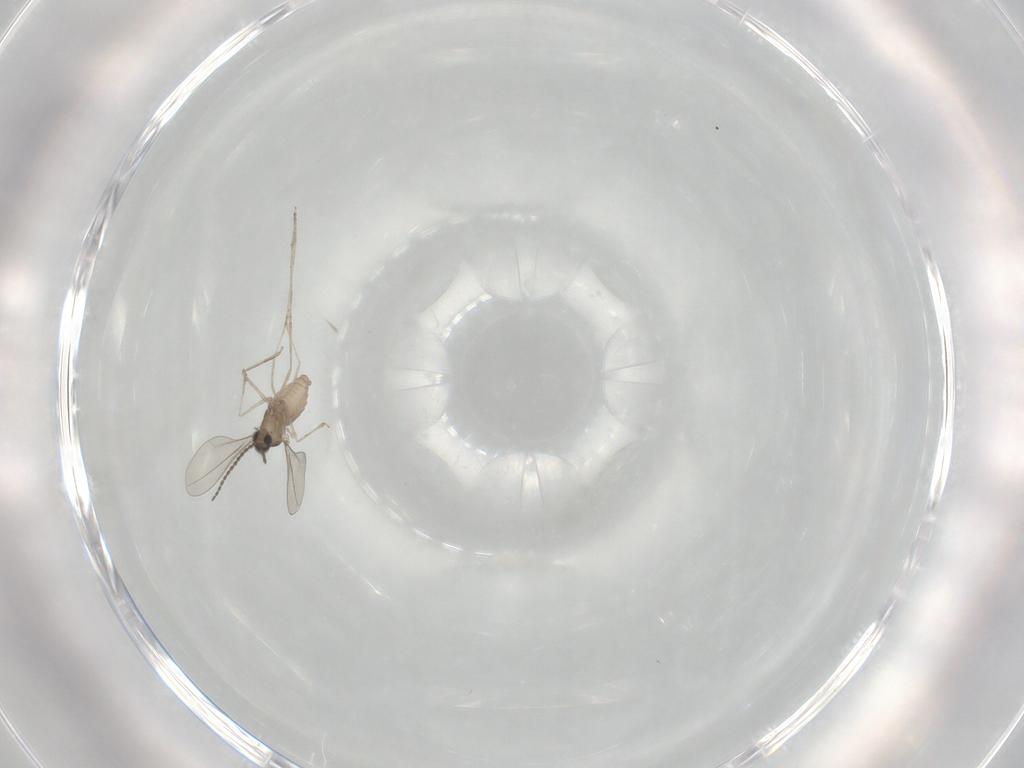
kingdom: Animalia
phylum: Arthropoda
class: Insecta
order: Diptera
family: Cecidomyiidae
